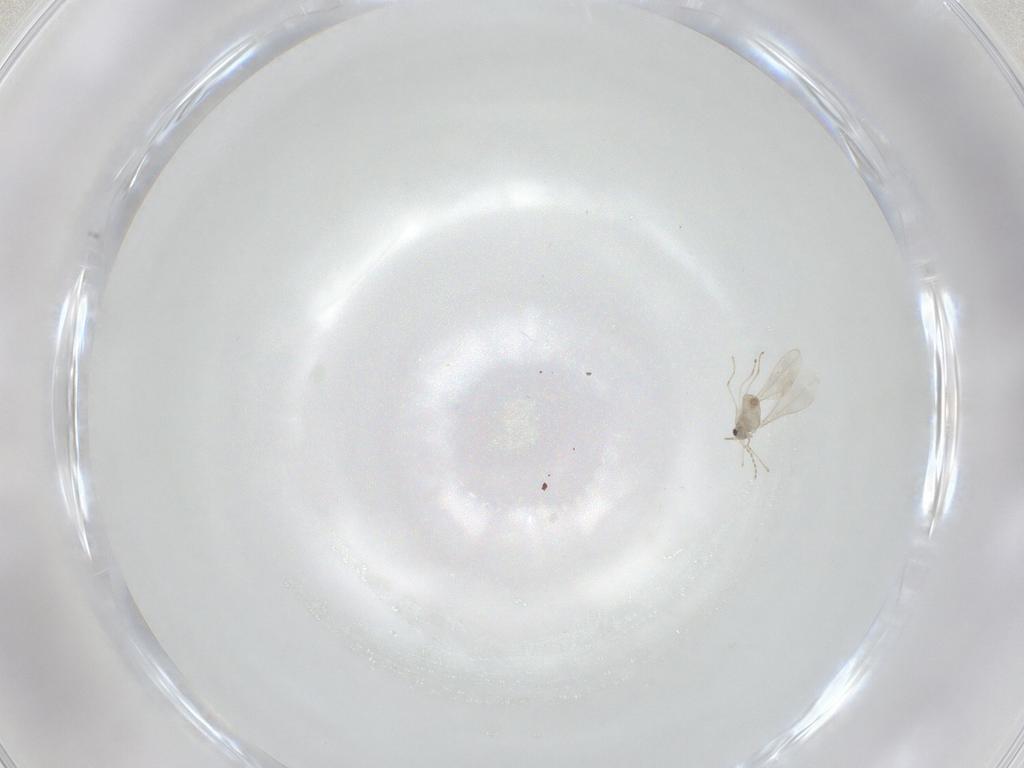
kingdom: Animalia
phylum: Arthropoda
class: Insecta
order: Diptera
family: Cecidomyiidae
